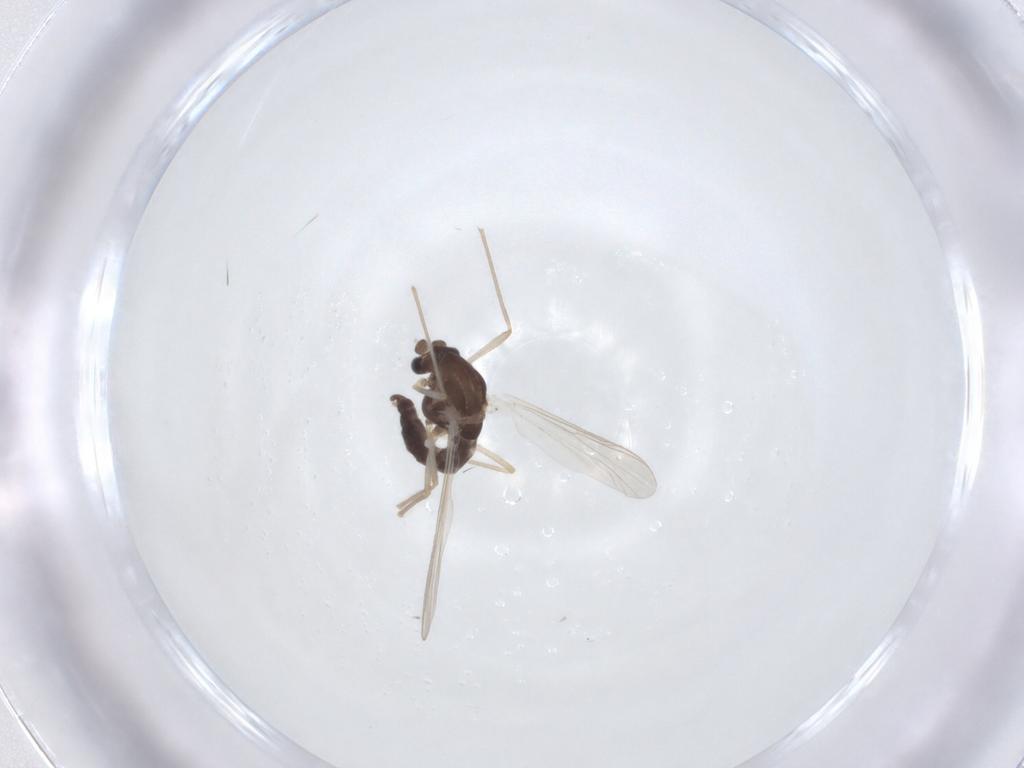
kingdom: Animalia
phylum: Arthropoda
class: Insecta
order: Diptera
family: Chironomidae
